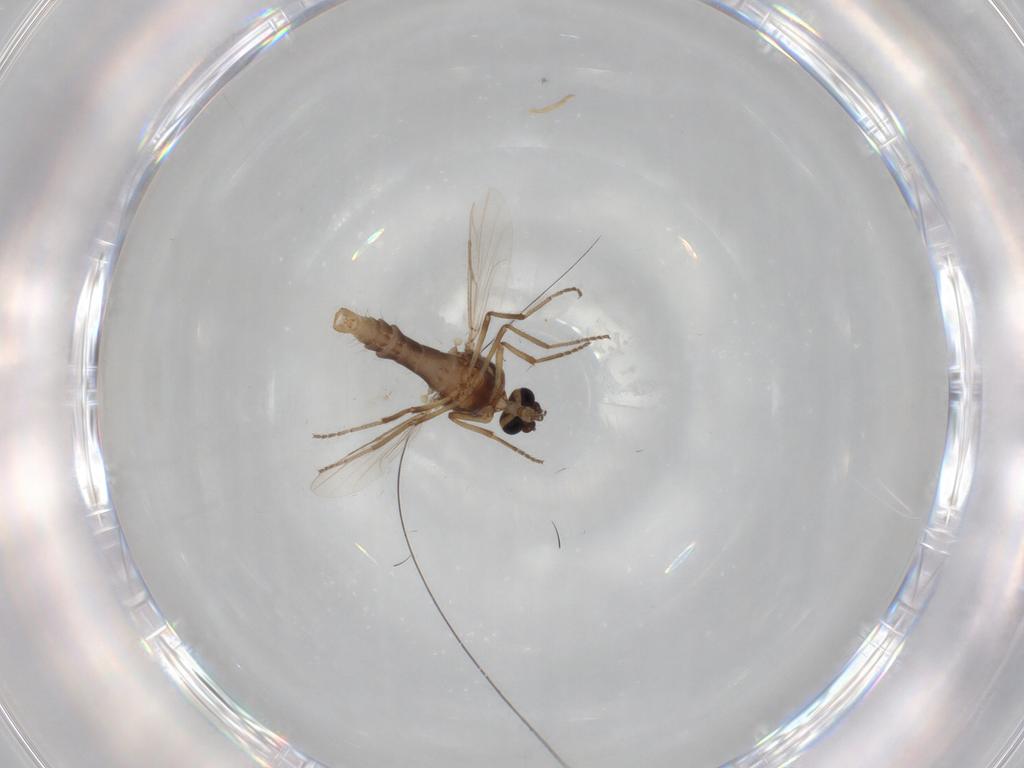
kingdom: Animalia
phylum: Arthropoda
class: Insecta
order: Diptera
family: Ceratopogonidae
